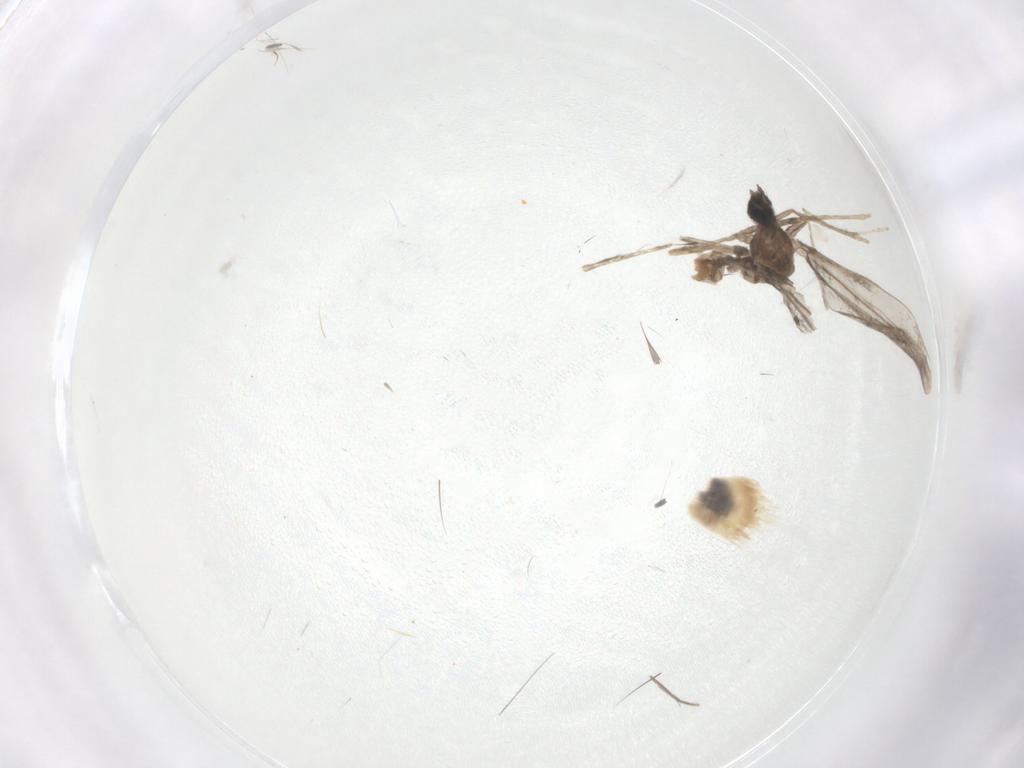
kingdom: Animalia
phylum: Arthropoda
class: Insecta
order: Diptera
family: Cecidomyiidae
